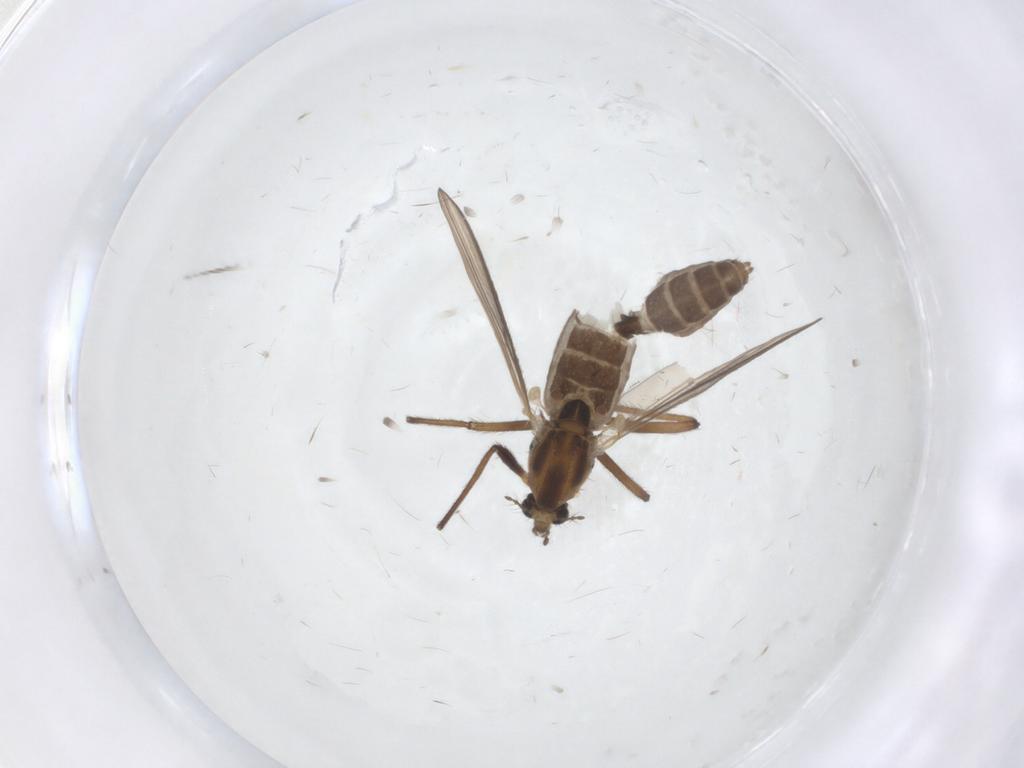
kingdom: Animalia
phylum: Arthropoda
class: Insecta
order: Diptera
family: Chironomidae
